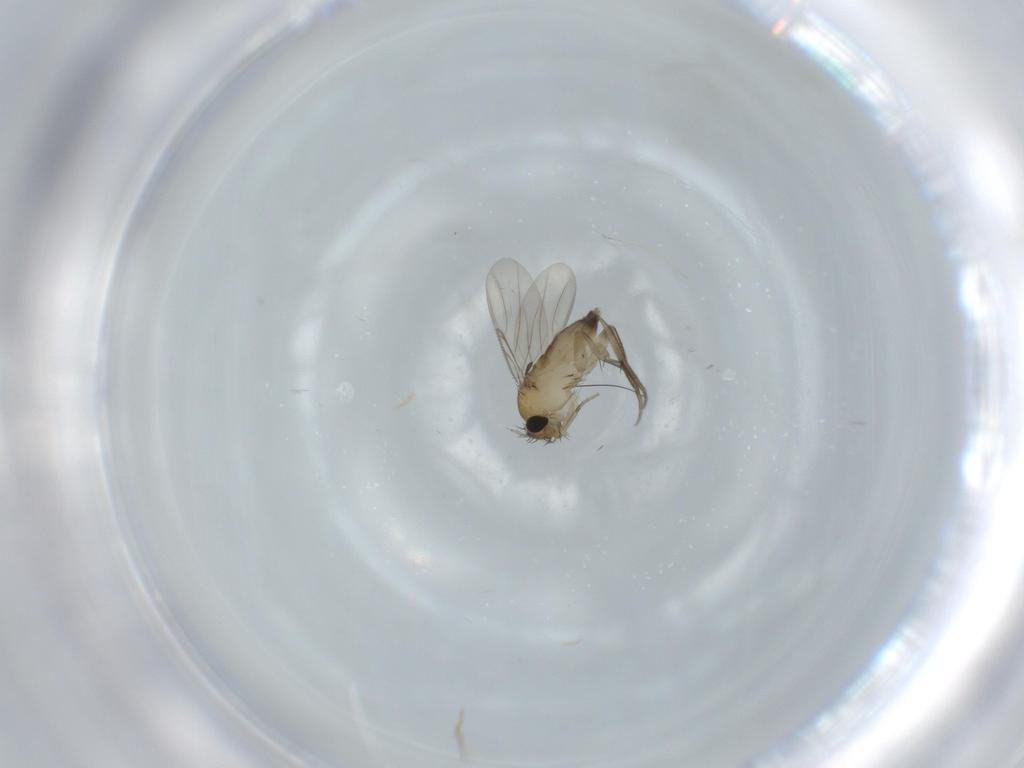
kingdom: Animalia
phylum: Arthropoda
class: Insecta
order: Diptera
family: Phoridae
